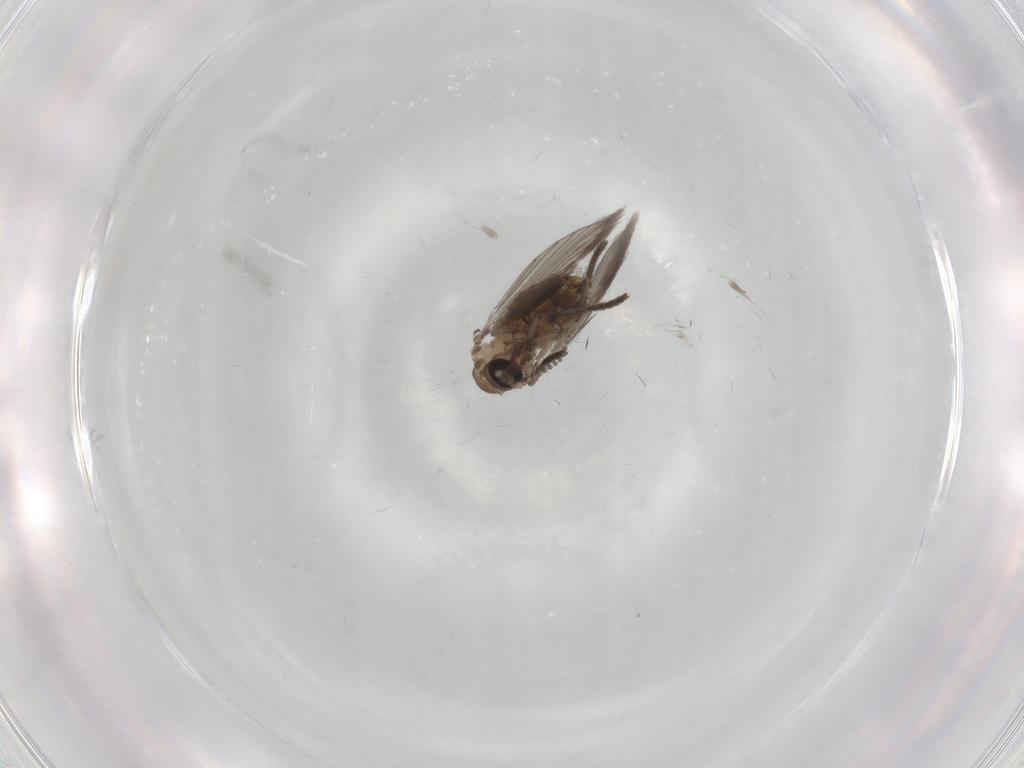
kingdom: Animalia
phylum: Arthropoda
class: Insecta
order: Diptera
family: Psychodidae
